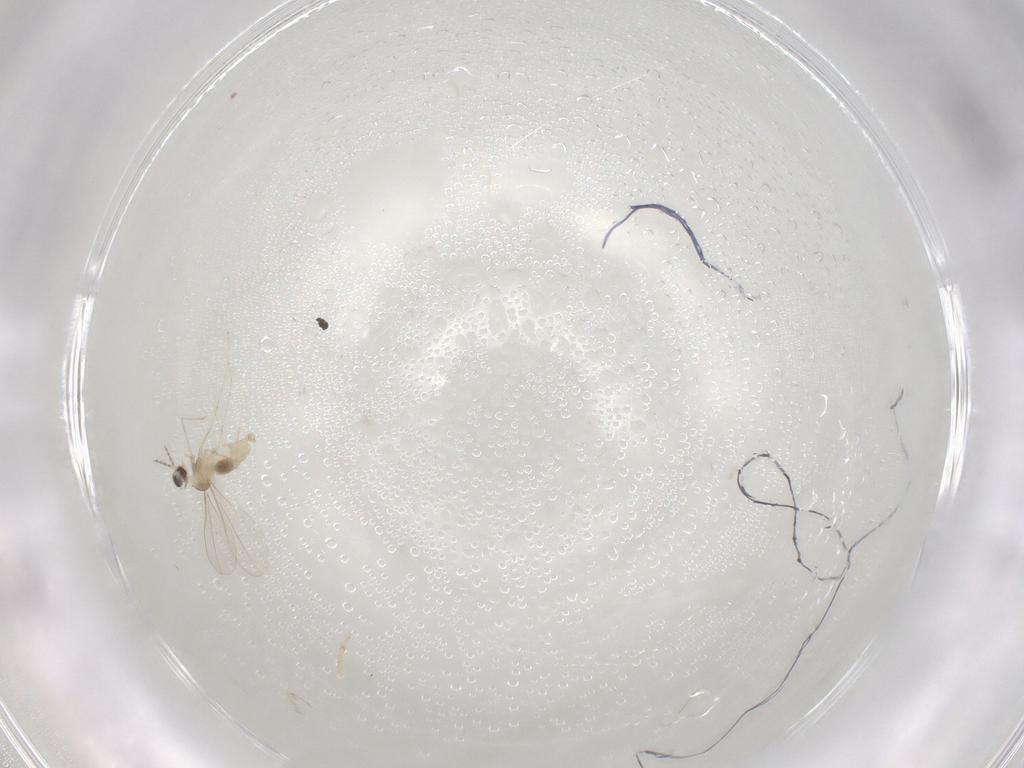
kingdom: Animalia
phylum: Arthropoda
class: Insecta
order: Diptera
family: Cecidomyiidae
